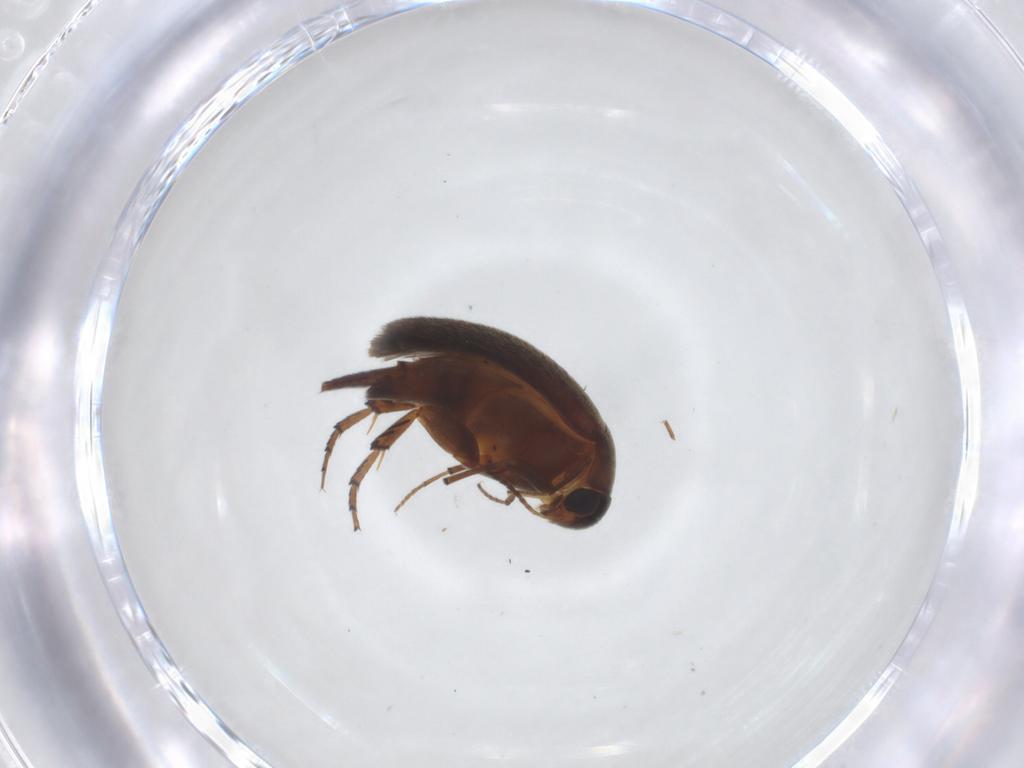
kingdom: Animalia
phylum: Arthropoda
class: Insecta
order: Coleoptera
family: Mordellidae
